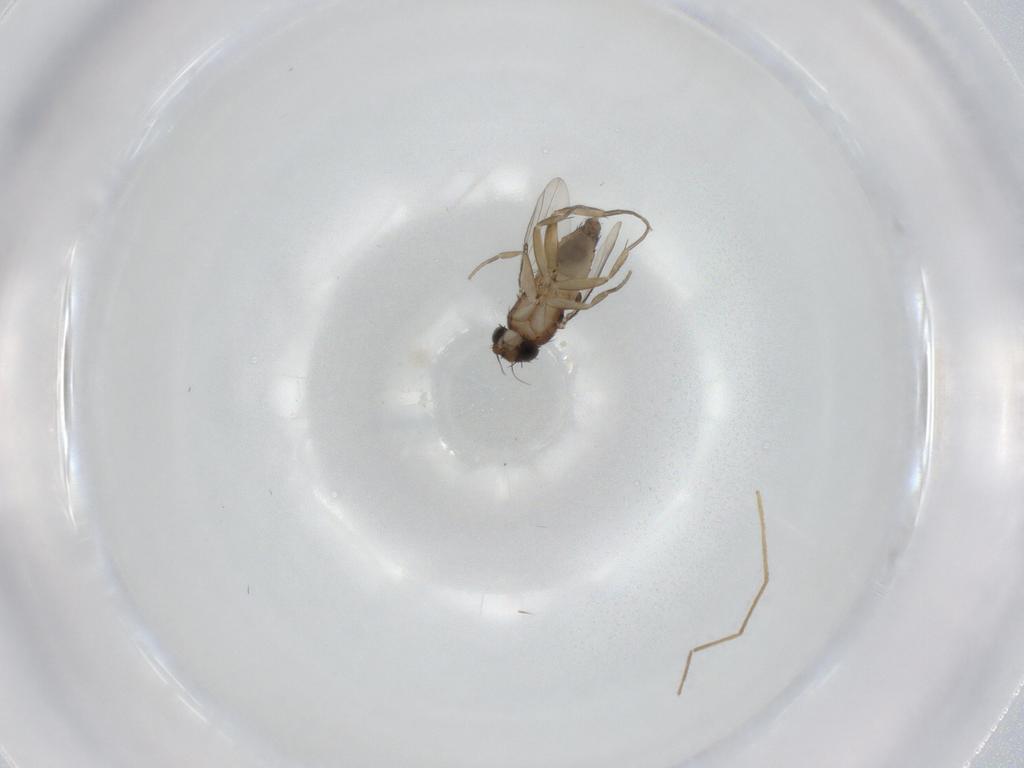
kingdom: Animalia
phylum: Arthropoda
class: Insecta
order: Diptera
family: Phoridae
